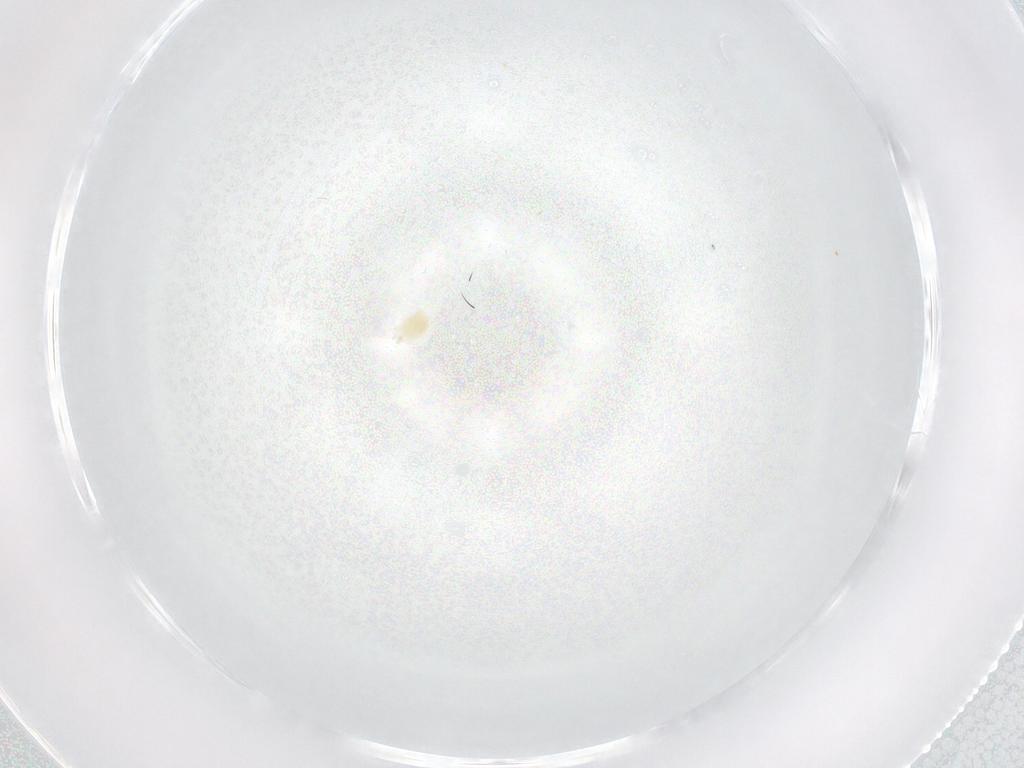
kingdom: Animalia
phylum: Arthropoda
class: Arachnida
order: Trombidiformes
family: Tetranychidae
